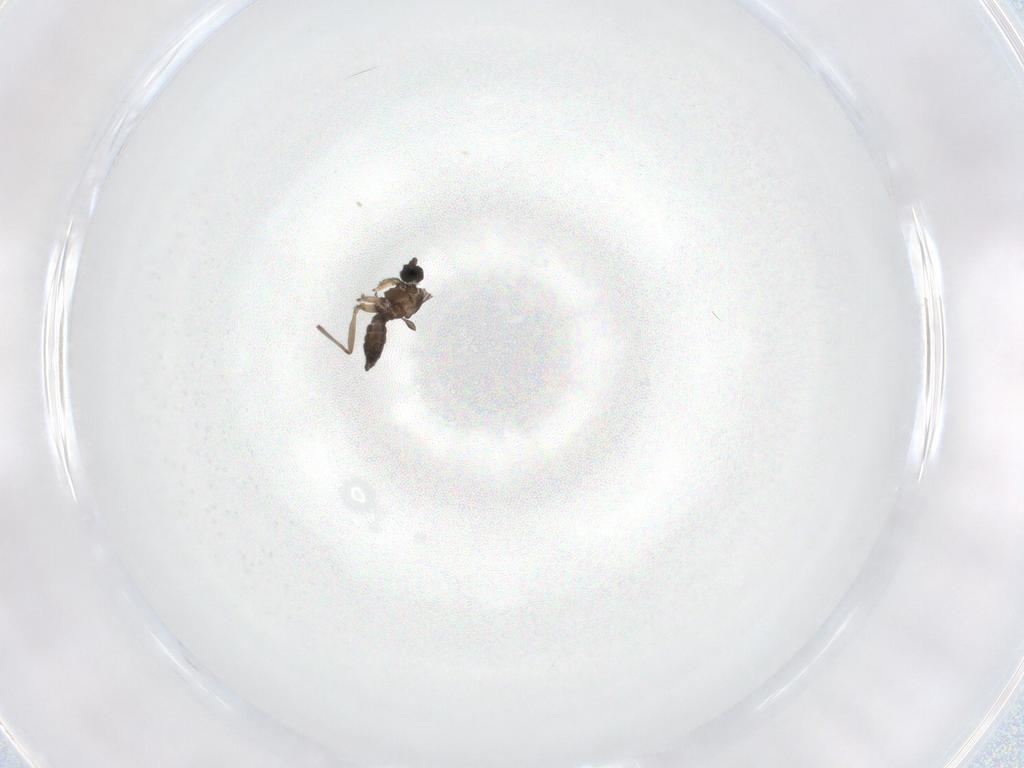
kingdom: Animalia
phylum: Arthropoda
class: Insecta
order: Diptera
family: Sciaridae
